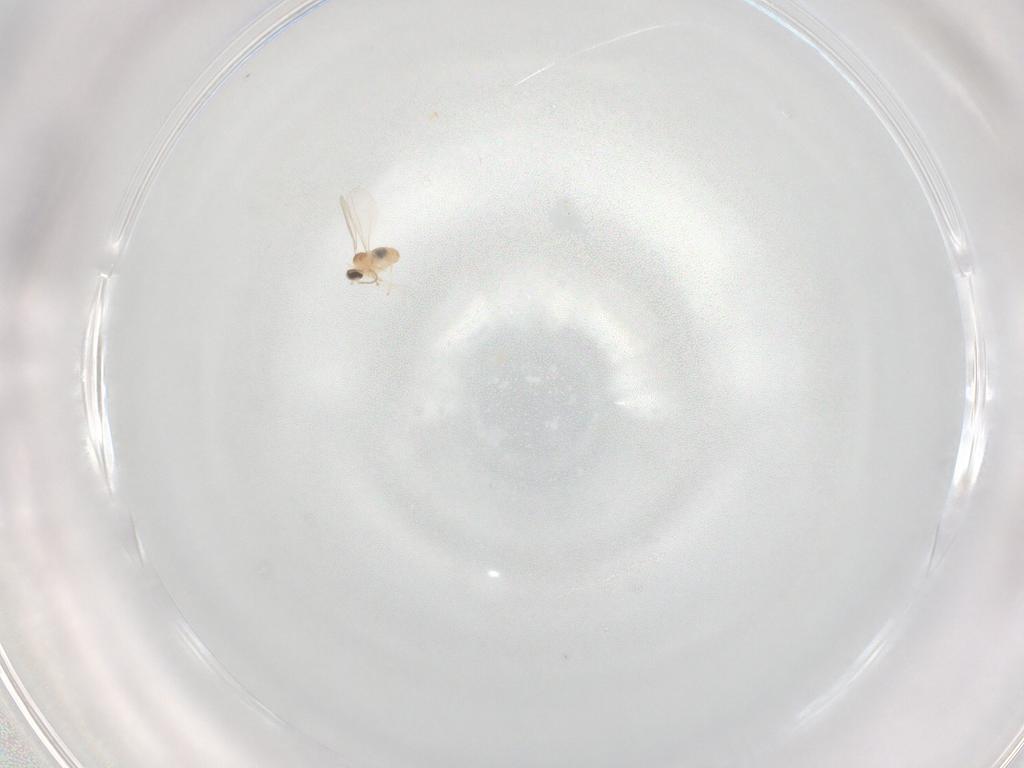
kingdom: Animalia
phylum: Arthropoda
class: Insecta
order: Diptera
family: Cecidomyiidae
